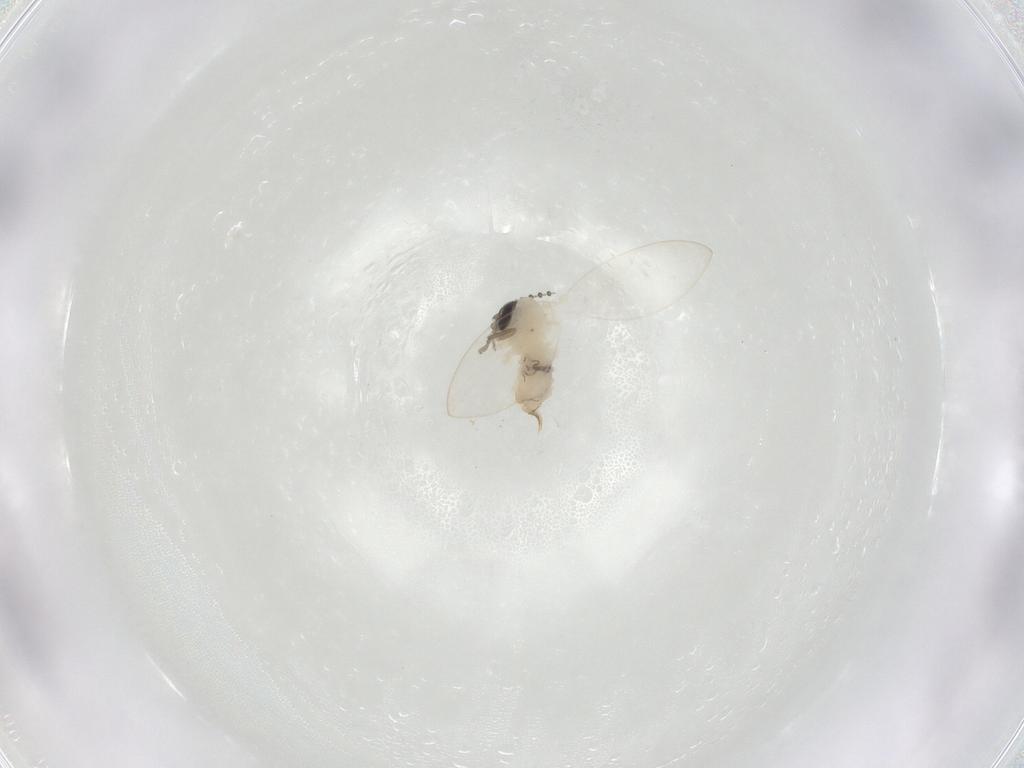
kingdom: Animalia
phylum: Arthropoda
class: Insecta
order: Diptera
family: Psychodidae
